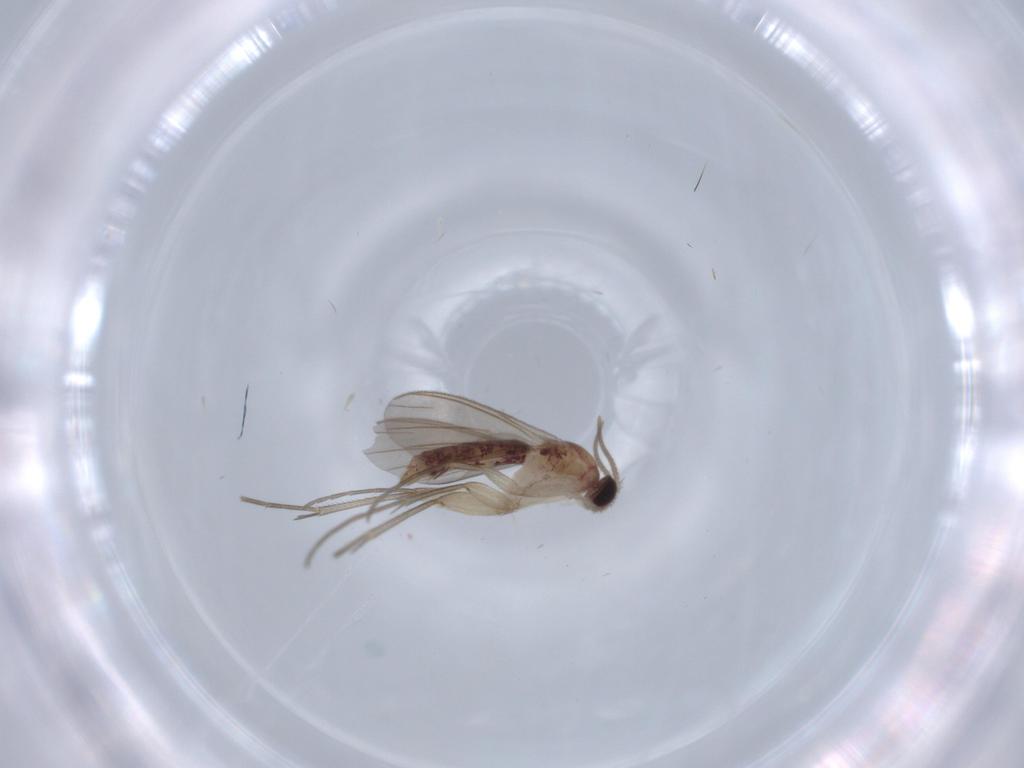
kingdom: Animalia
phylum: Arthropoda
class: Insecta
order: Diptera
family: Mycetophilidae
